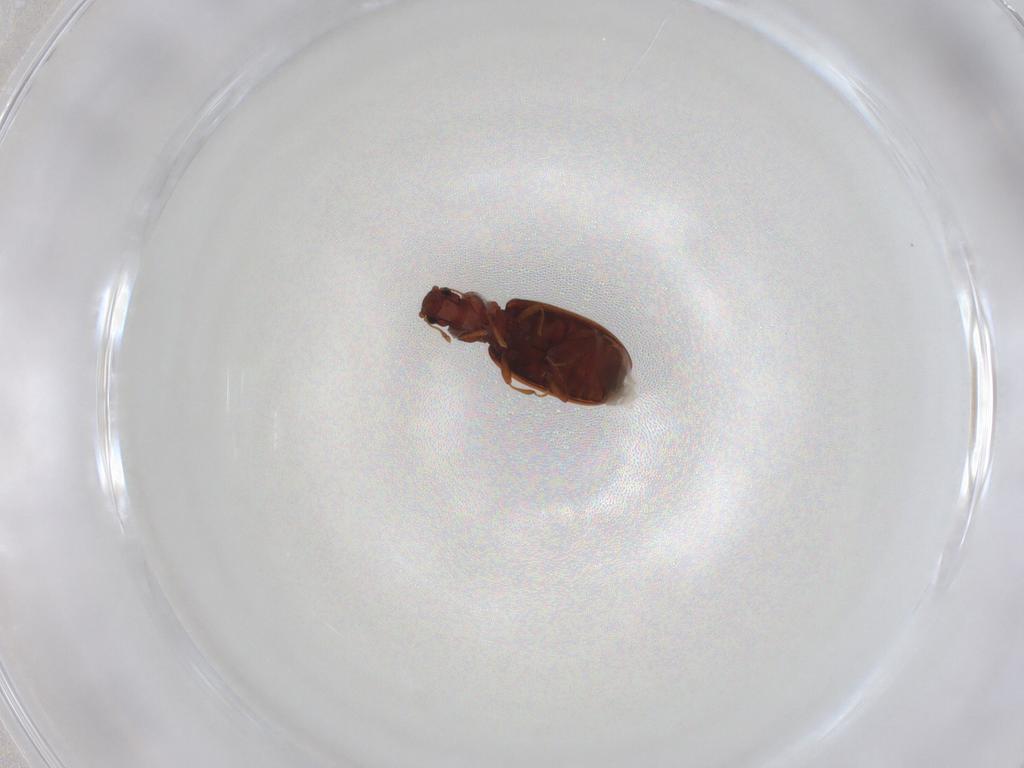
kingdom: Animalia
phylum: Arthropoda
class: Insecta
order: Coleoptera
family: Latridiidae
